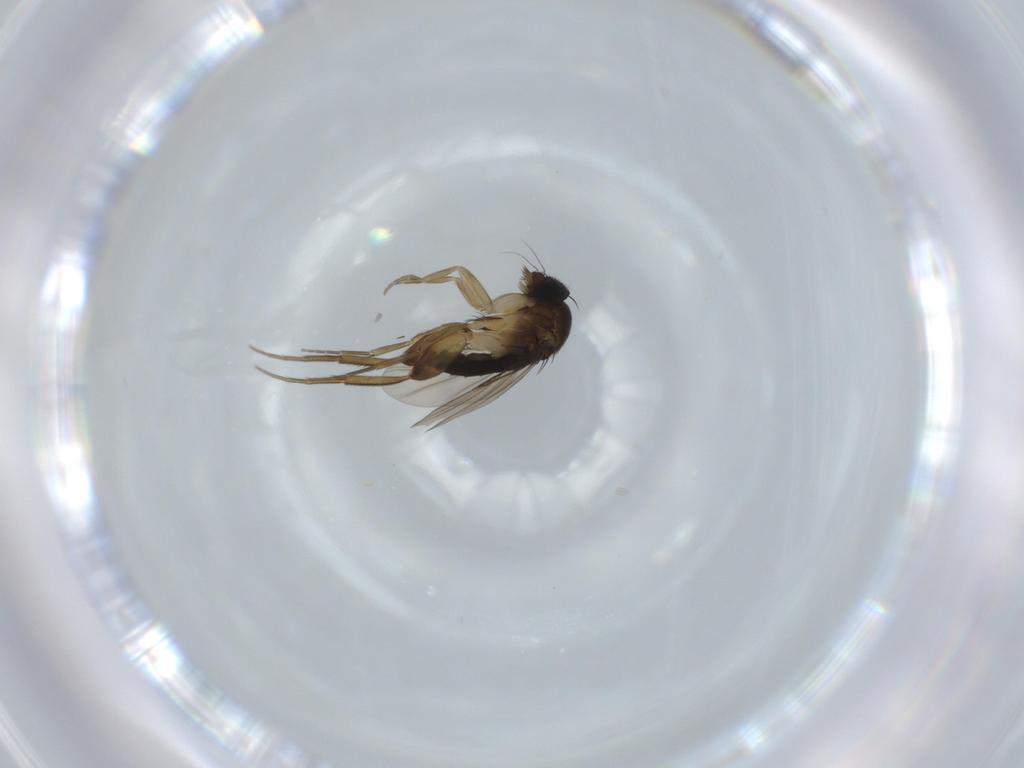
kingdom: Animalia
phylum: Arthropoda
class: Insecta
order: Diptera
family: Phoridae
